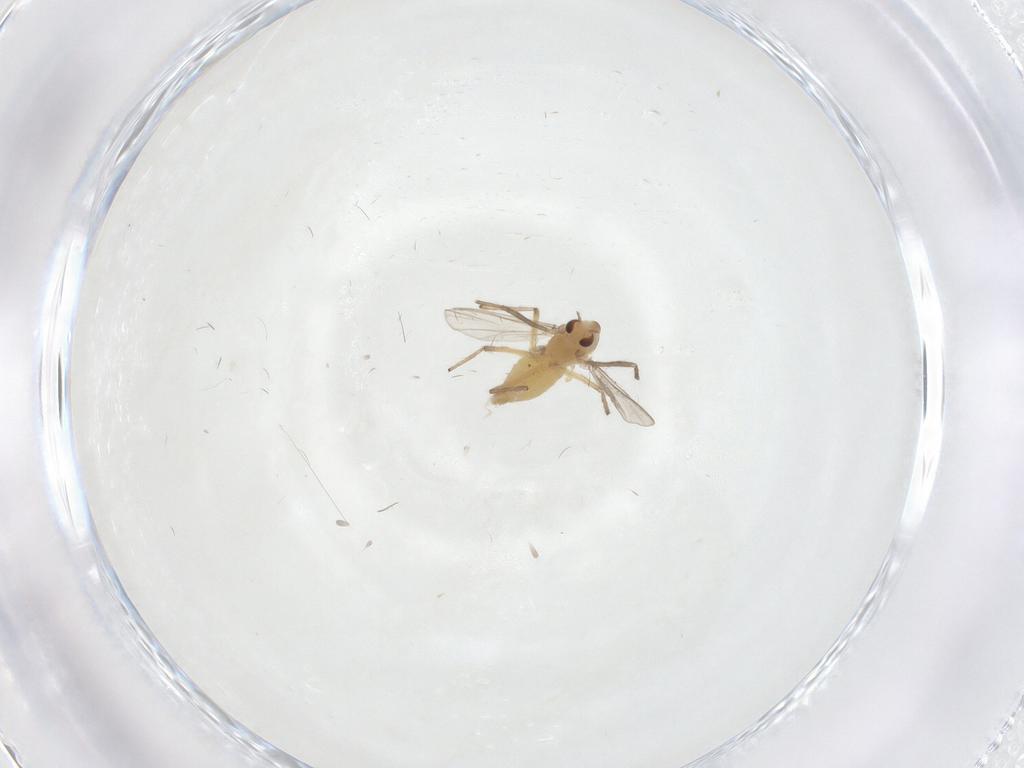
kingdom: Animalia
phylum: Arthropoda
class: Insecta
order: Diptera
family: Chironomidae
